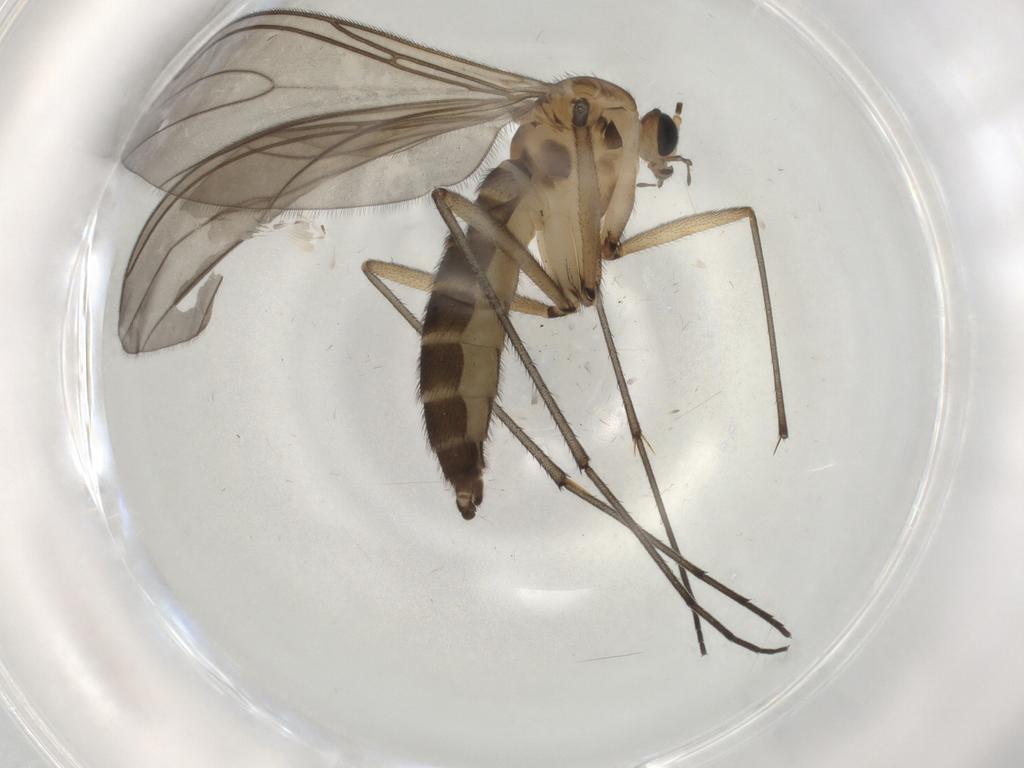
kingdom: Animalia
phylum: Arthropoda
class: Insecta
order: Diptera
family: Sciaridae
